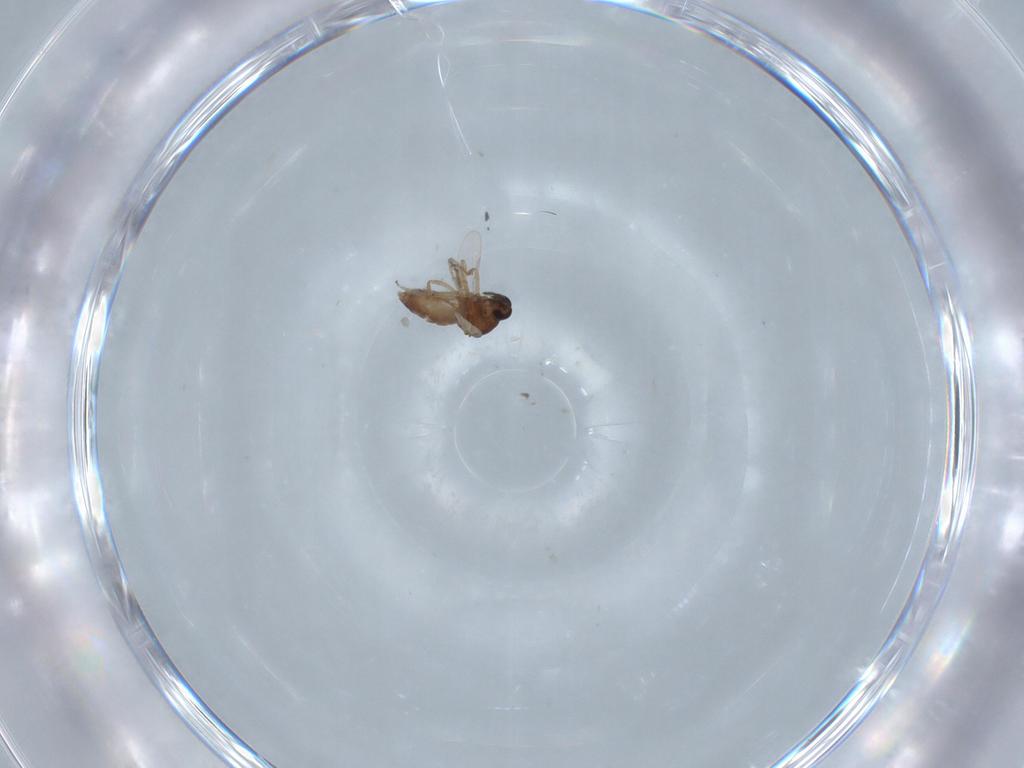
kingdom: Animalia
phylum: Arthropoda
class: Insecta
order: Diptera
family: Ceratopogonidae
